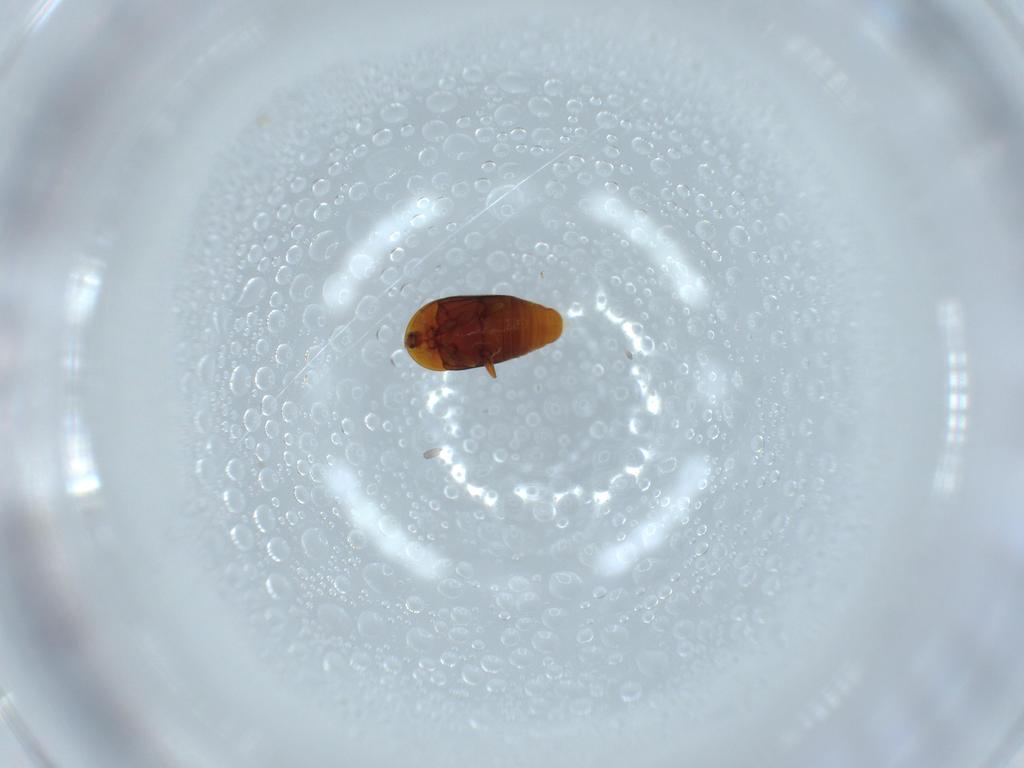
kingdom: Animalia
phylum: Arthropoda
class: Insecta
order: Coleoptera
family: Corylophidae
